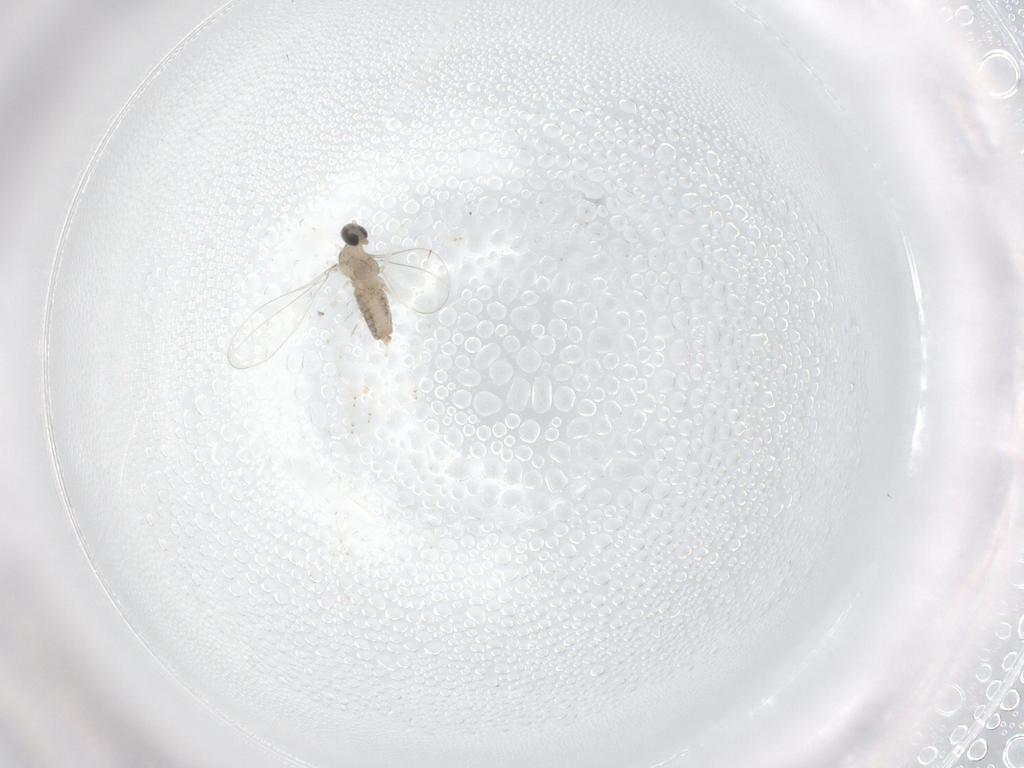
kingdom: Animalia
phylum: Arthropoda
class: Insecta
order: Diptera
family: Cecidomyiidae
